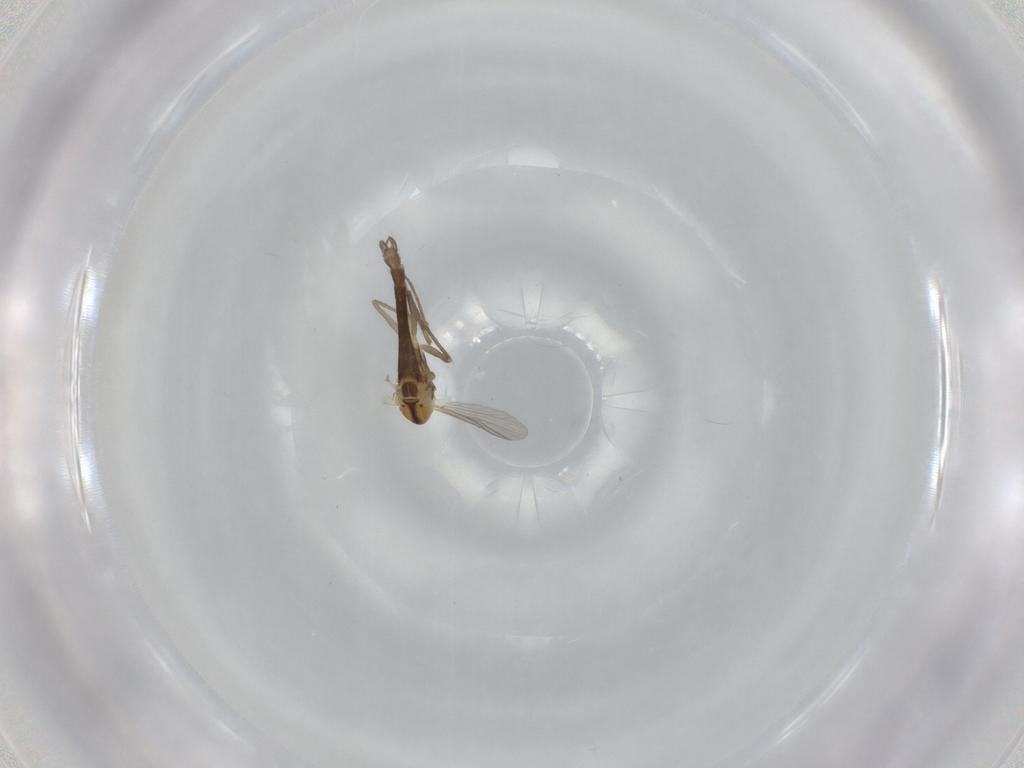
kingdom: Animalia
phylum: Arthropoda
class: Insecta
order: Diptera
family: Chironomidae
